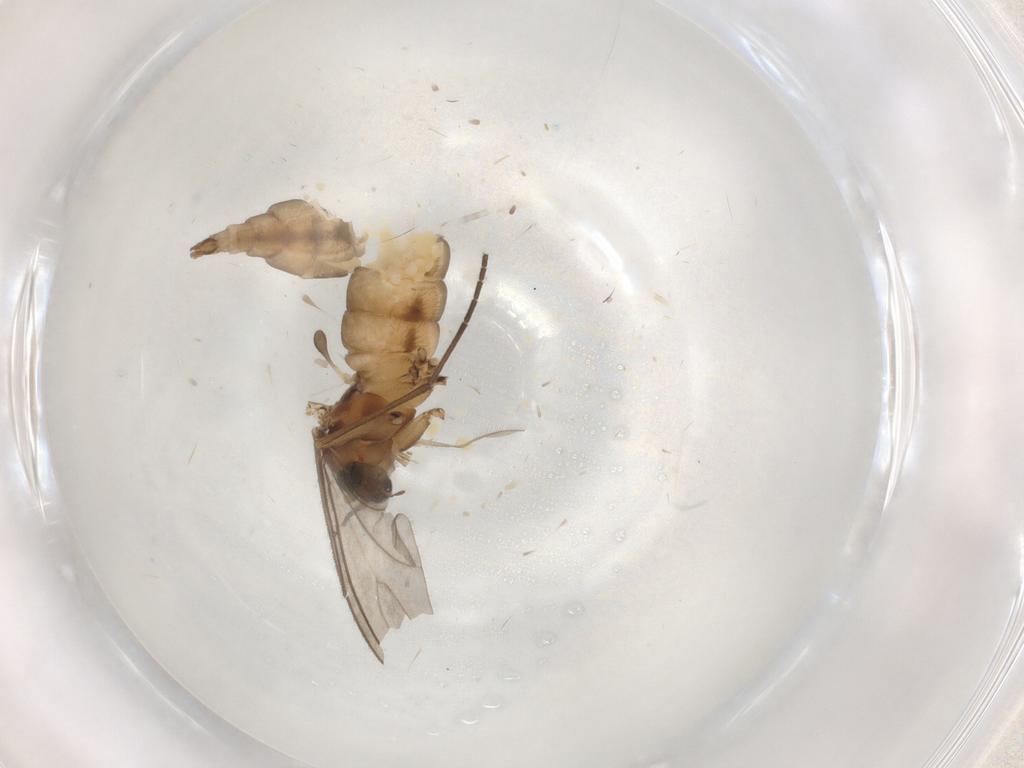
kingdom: Animalia
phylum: Arthropoda
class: Insecta
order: Diptera
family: Sciaridae
